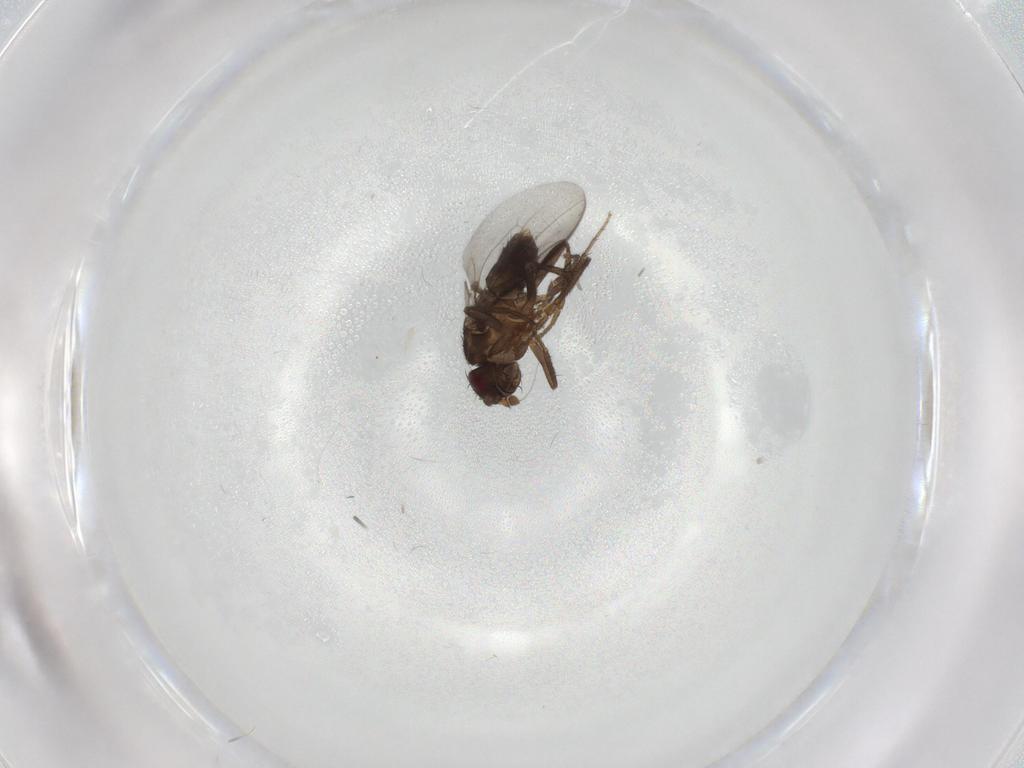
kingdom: Animalia
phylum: Arthropoda
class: Insecta
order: Diptera
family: Sphaeroceridae
